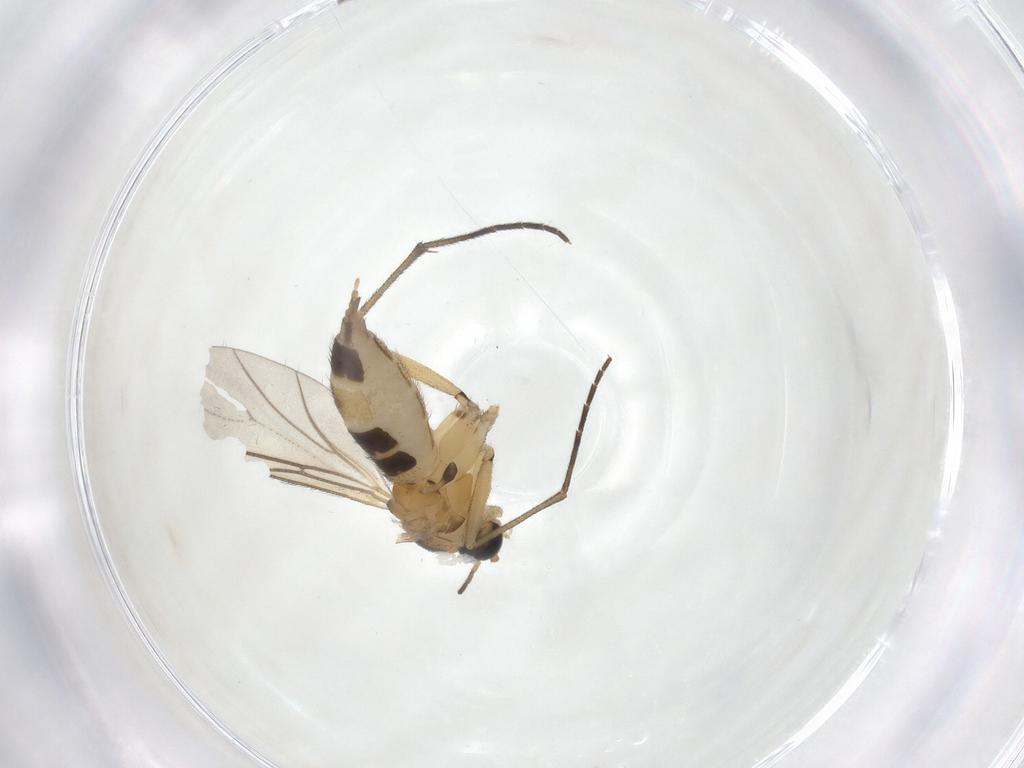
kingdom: Animalia
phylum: Arthropoda
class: Insecta
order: Diptera
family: Sciaridae
